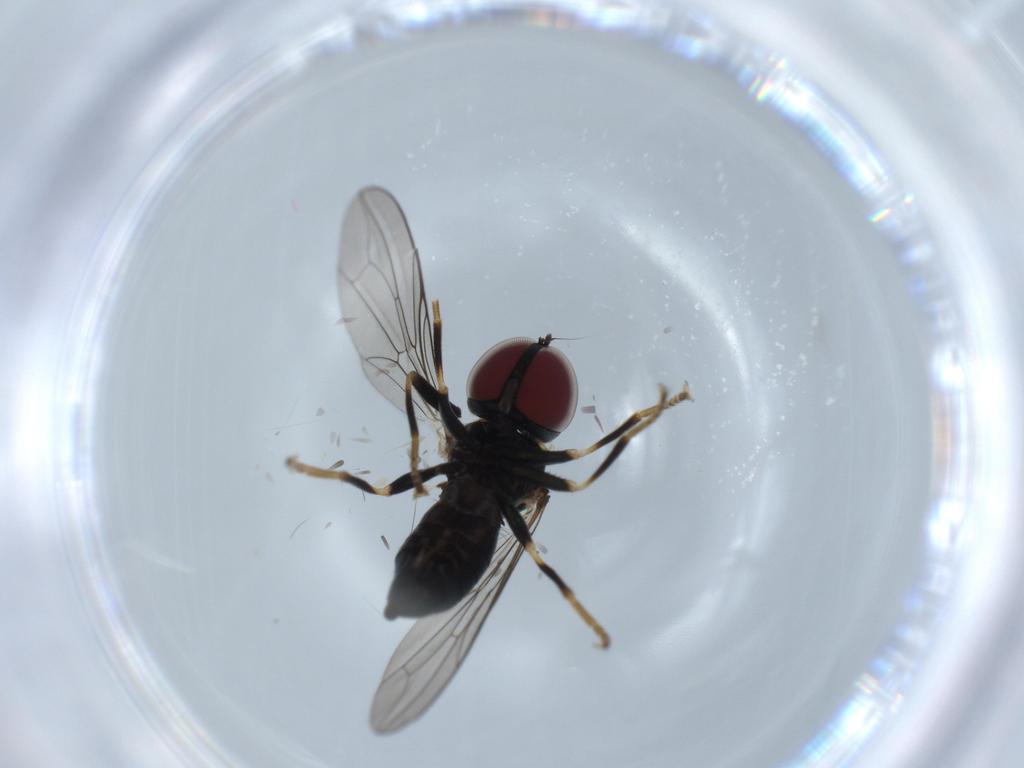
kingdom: Animalia
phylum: Arthropoda
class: Insecta
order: Diptera
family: Pipunculidae
